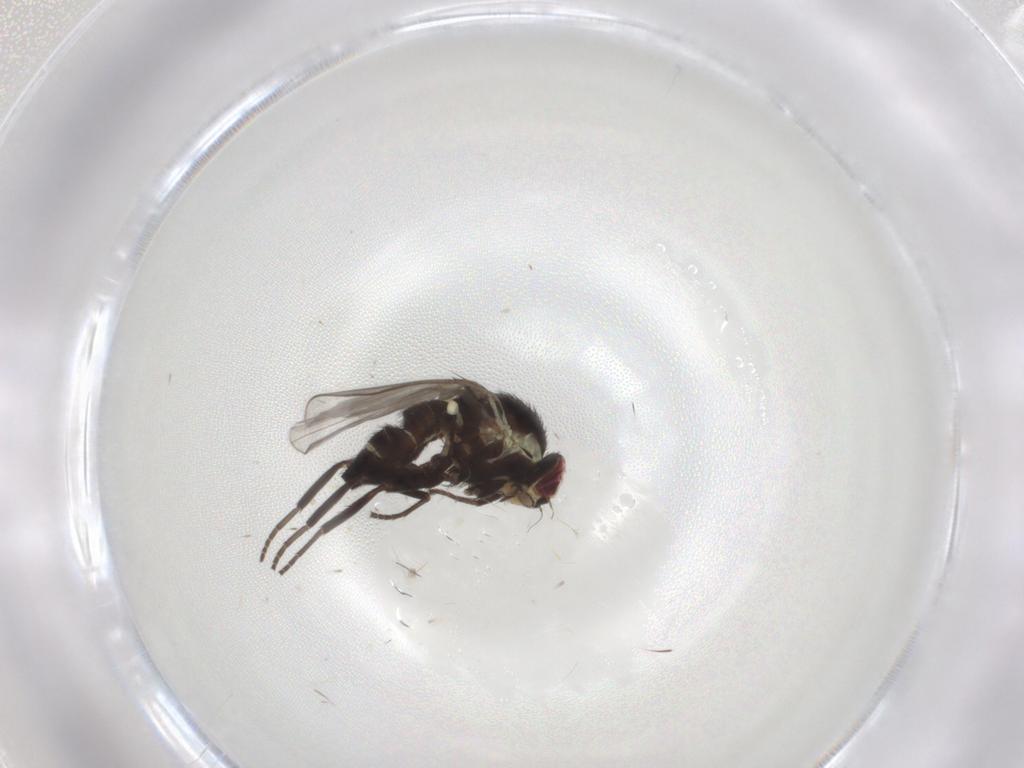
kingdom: Animalia
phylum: Arthropoda
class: Insecta
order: Diptera
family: Agromyzidae
